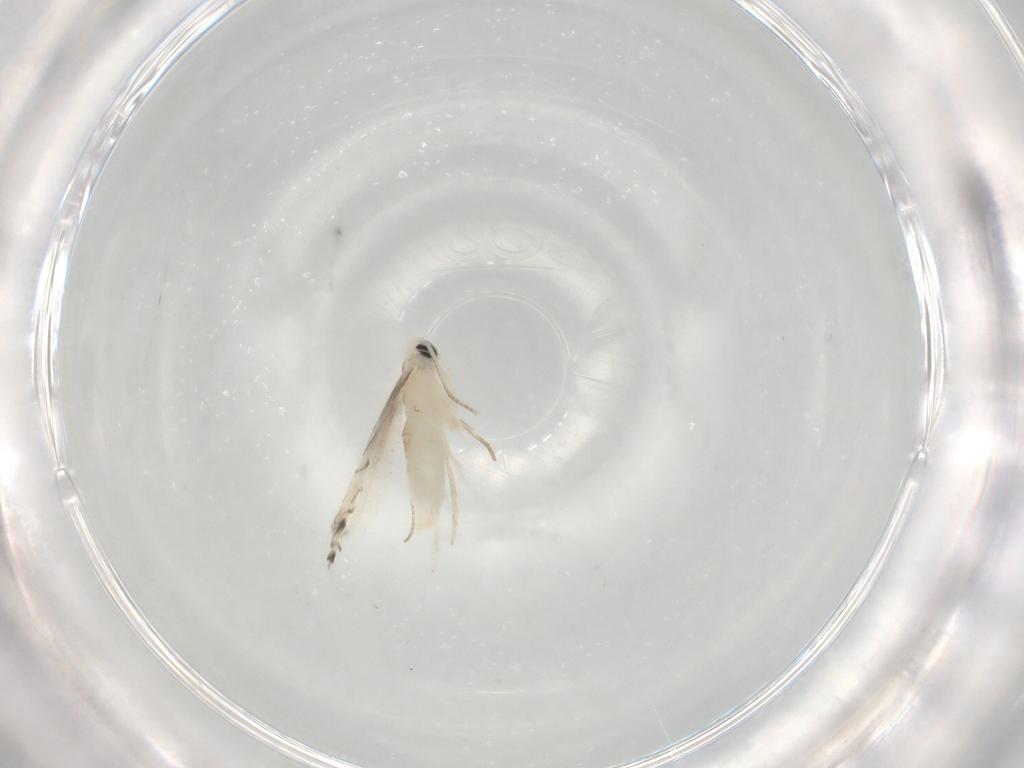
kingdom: Animalia
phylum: Arthropoda
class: Insecta
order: Lepidoptera
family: Gracillariidae
